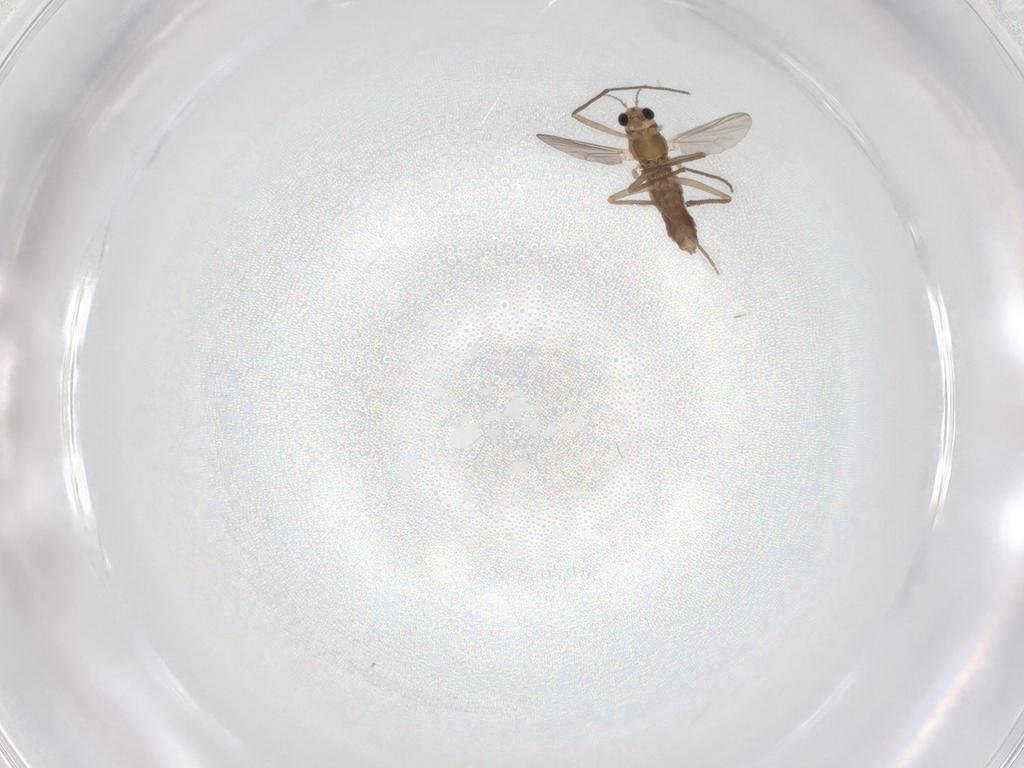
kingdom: Animalia
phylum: Arthropoda
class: Insecta
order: Diptera
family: Chironomidae
